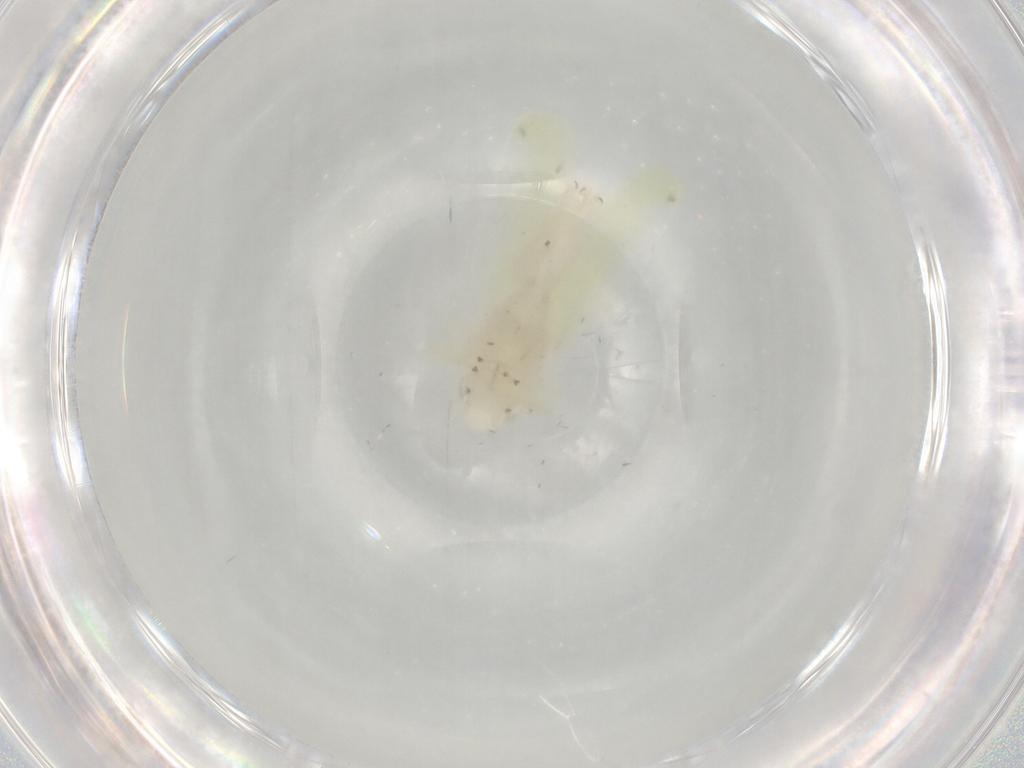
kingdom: Animalia
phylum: Arthropoda
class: Insecta
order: Hemiptera
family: Cicadellidae
